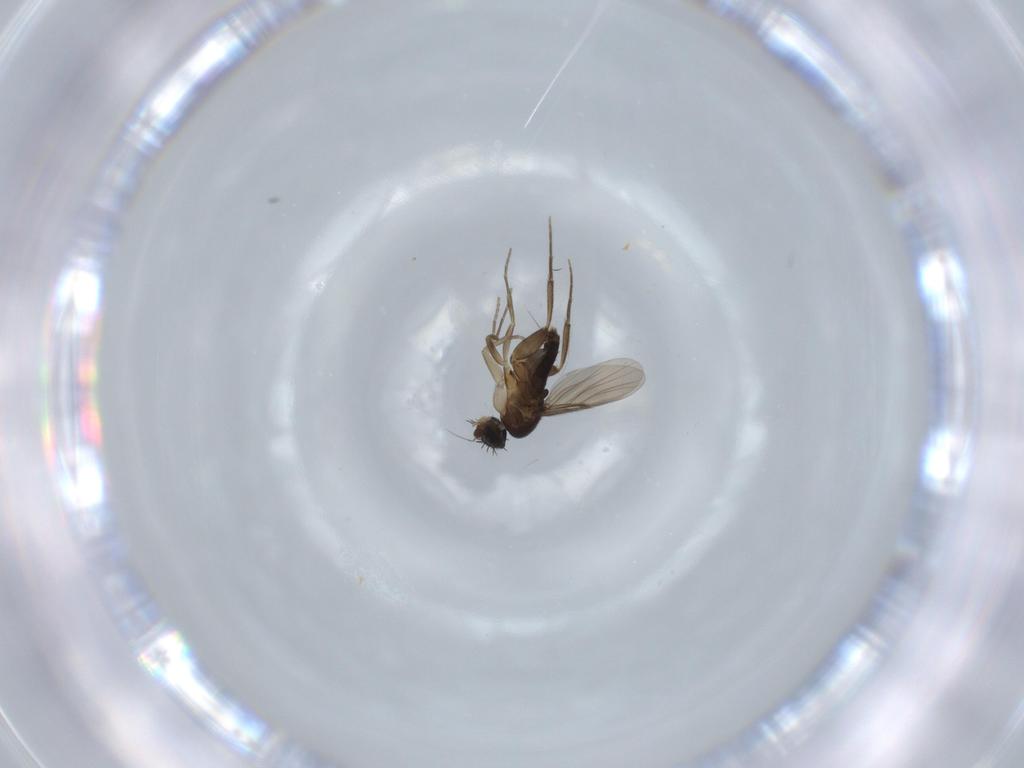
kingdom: Animalia
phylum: Arthropoda
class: Insecta
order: Diptera
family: Phoridae
